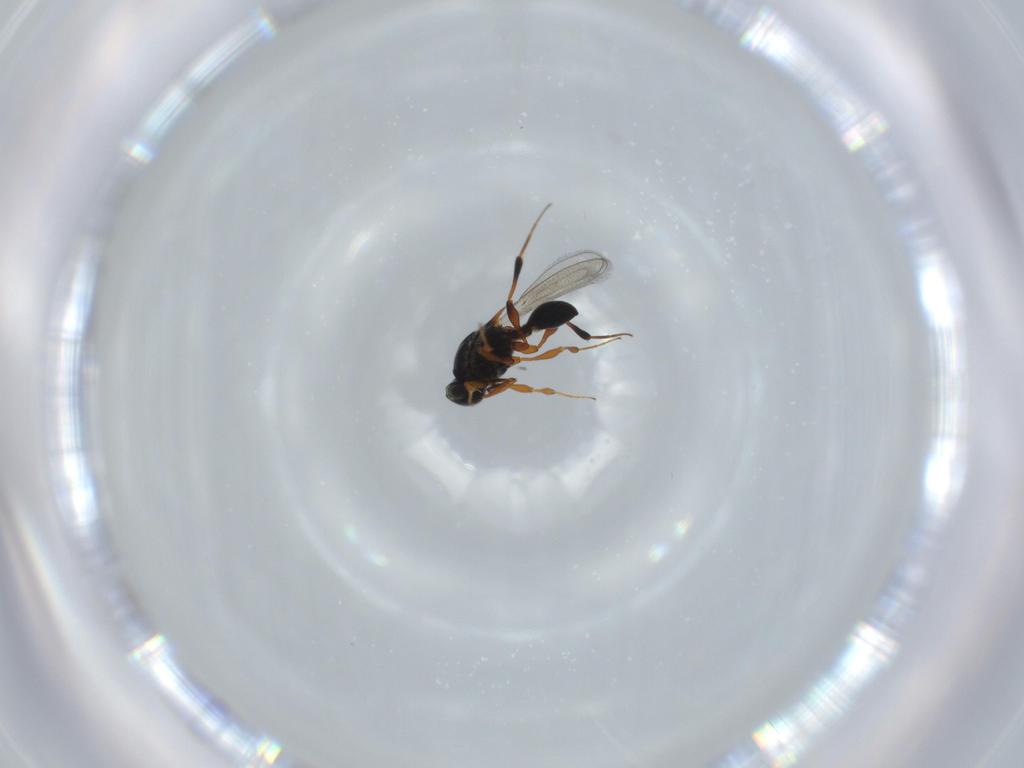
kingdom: Animalia
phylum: Arthropoda
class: Insecta
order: Hymenoptera
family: Platygastridae
